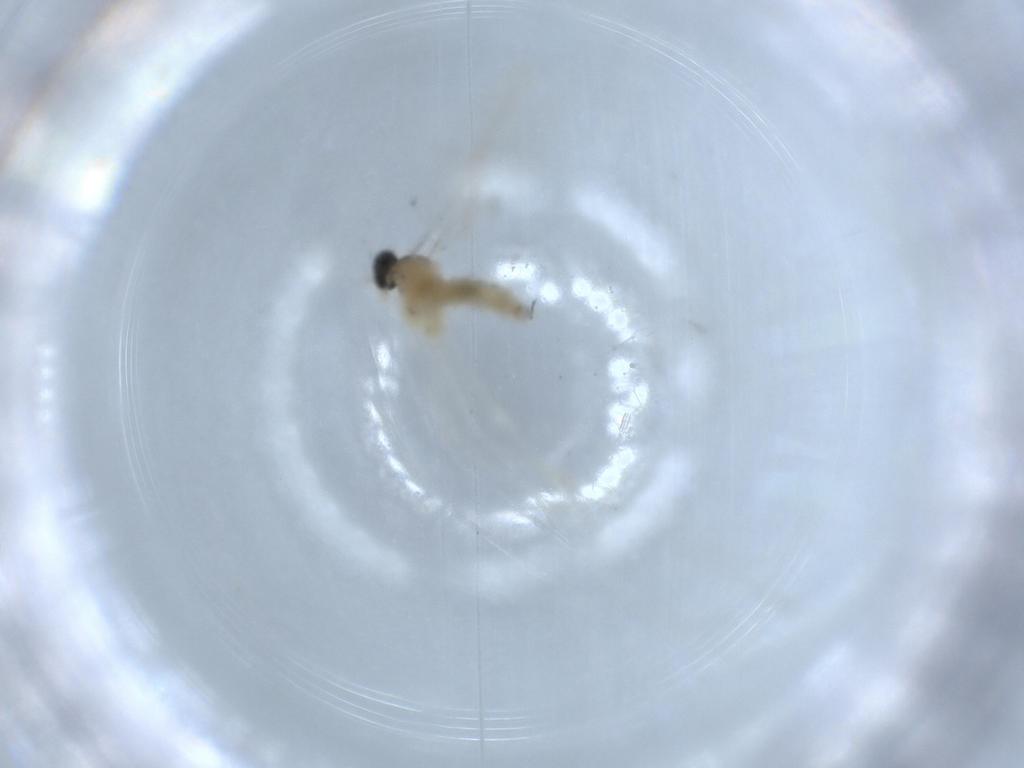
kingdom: Animalia
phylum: Arthropoda
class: Insecta
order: Diptera
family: Cecidomyiidae
